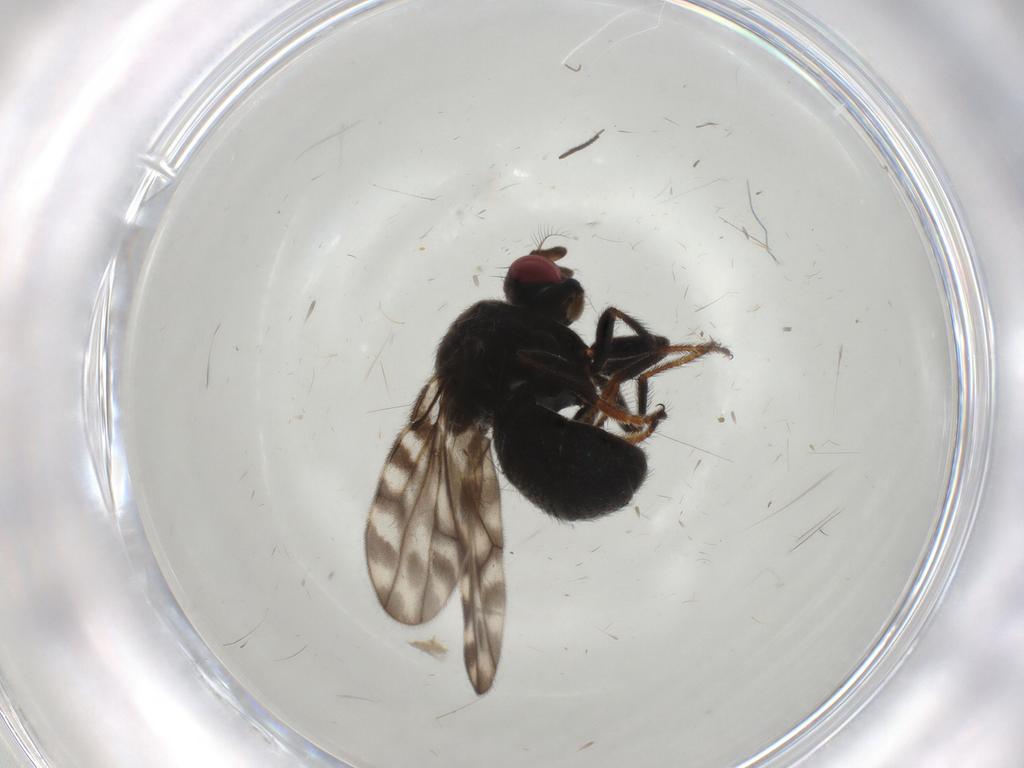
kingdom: Animalia
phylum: Arthropoda
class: Insecta
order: Diptera
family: Ephydridae
